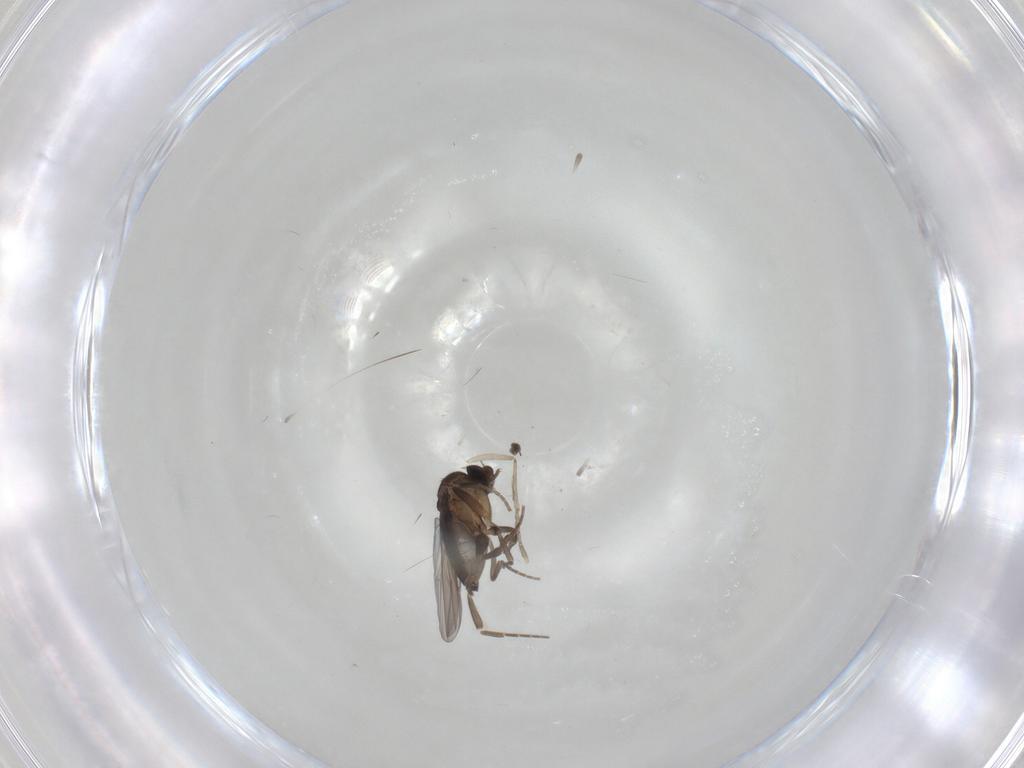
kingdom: Animalia
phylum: Arthropoda
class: Insecta
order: Diptera
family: Chironomidae
